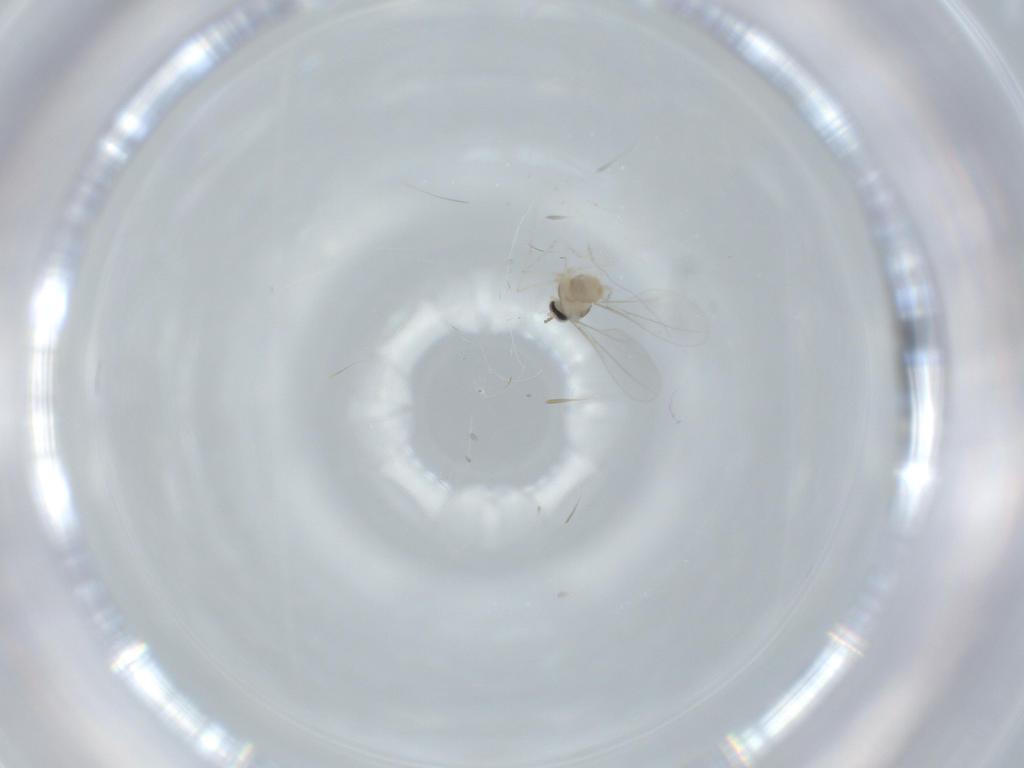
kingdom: Animalia
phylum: Arthropoda
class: Insecta
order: Diptera
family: Cecidomyiidae
